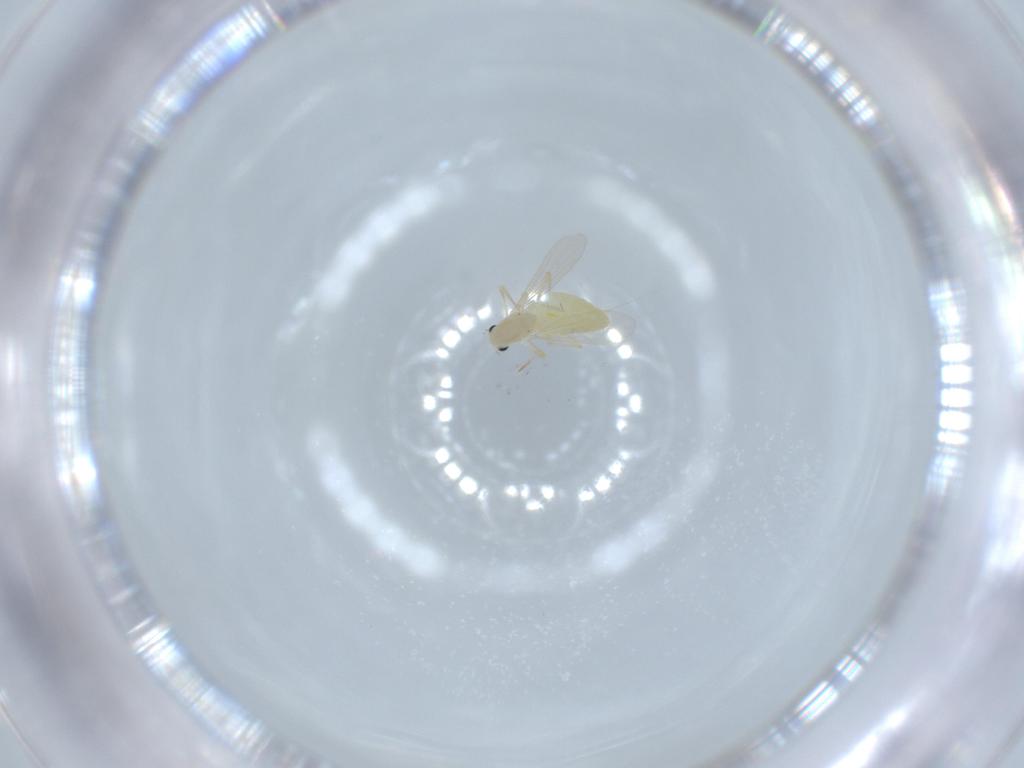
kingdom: Animalia
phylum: Arthropoda
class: Insecta
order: Diptera
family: Chironomidae
